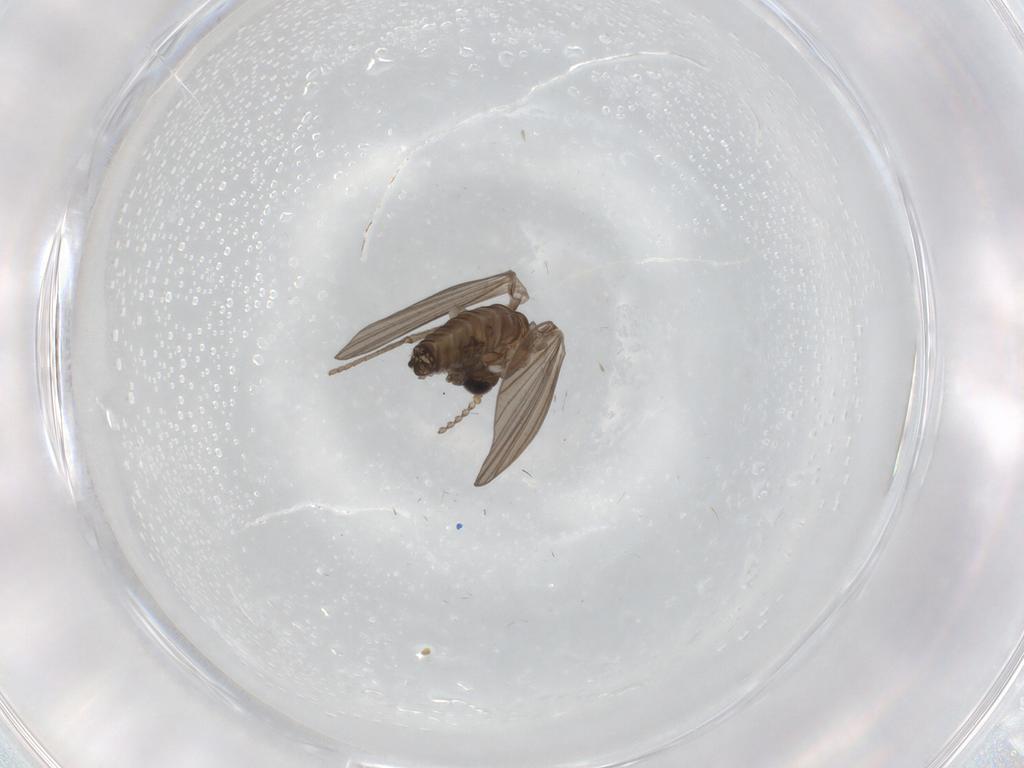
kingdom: Animalia
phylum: Arthropoda
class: Insecta
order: Diptera
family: Psychodidae
